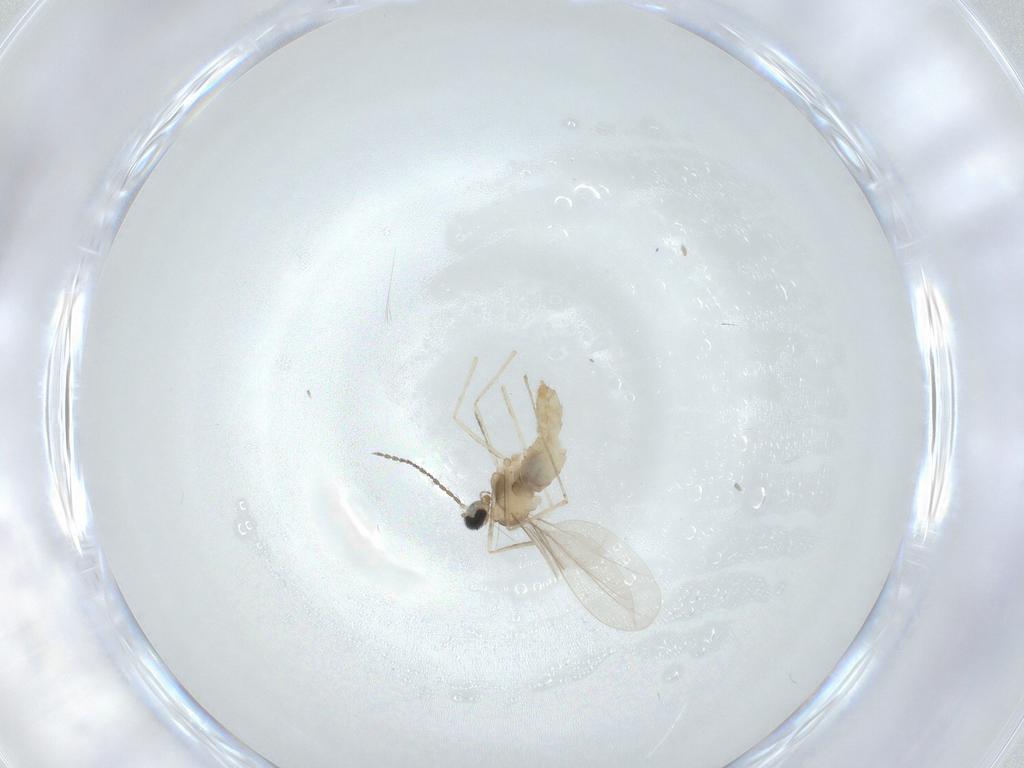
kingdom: Animalia
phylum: Arthropoda
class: Insecta
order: Diptera
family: Cecidomyiidae
